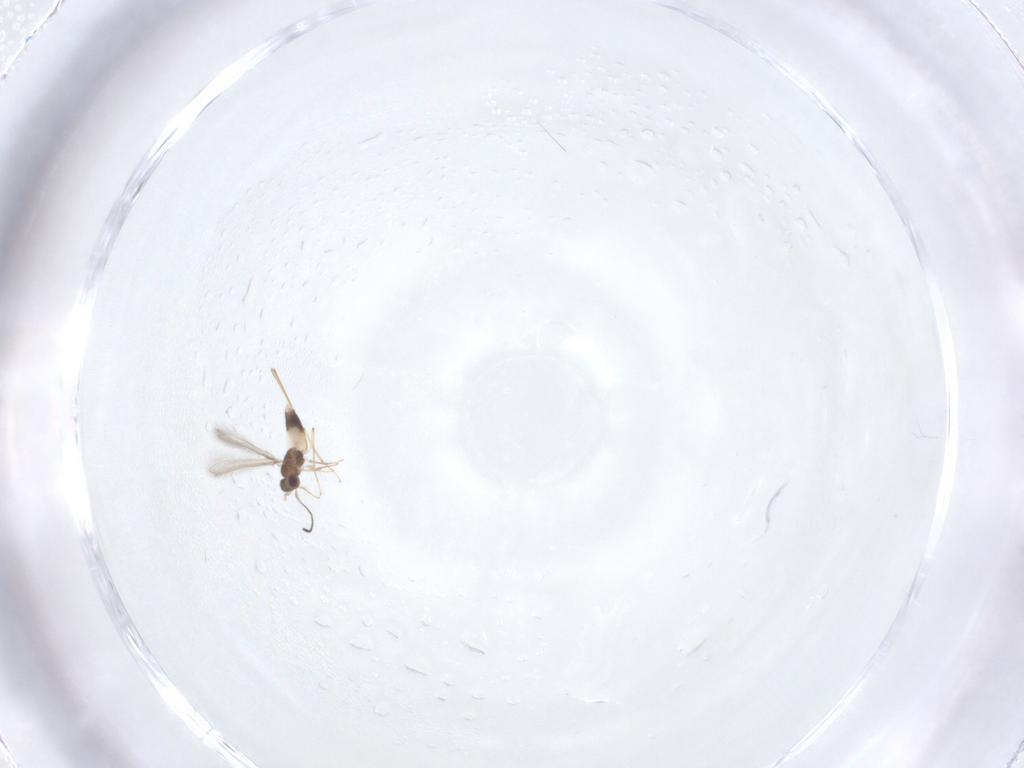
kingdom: Animalia
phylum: Arthropoda
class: Insecta
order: Hymenoptera
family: Mymaridae
